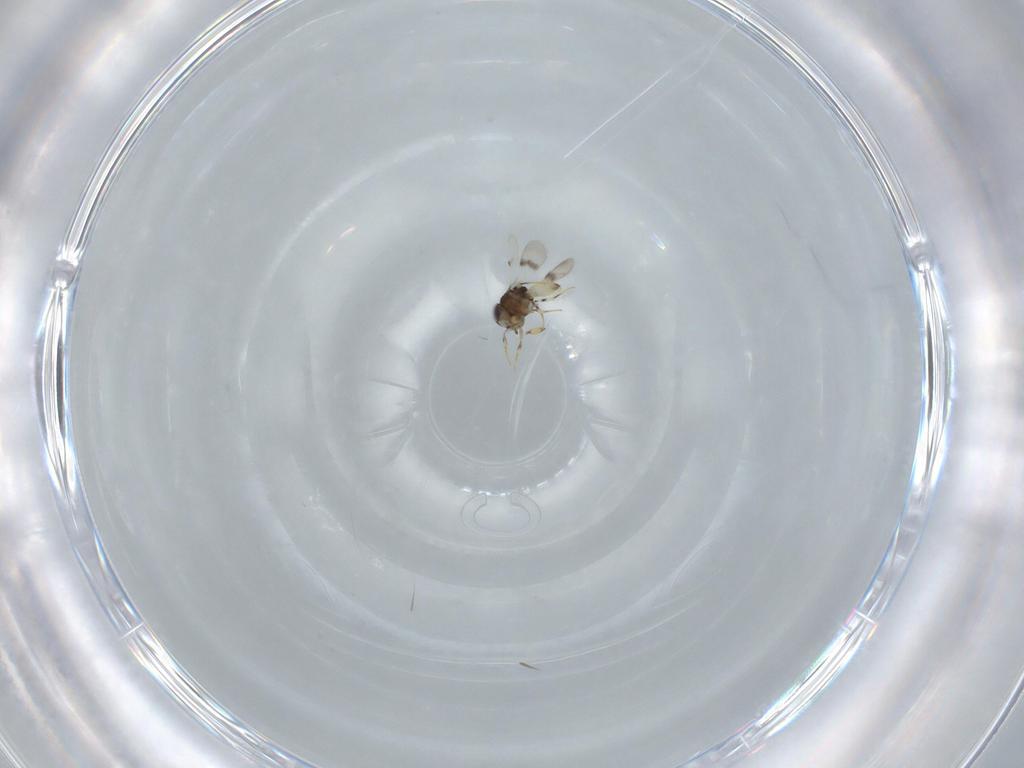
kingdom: Animalia
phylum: Arthropoda
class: Insecta
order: Hymenoptera
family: Scelionidae
